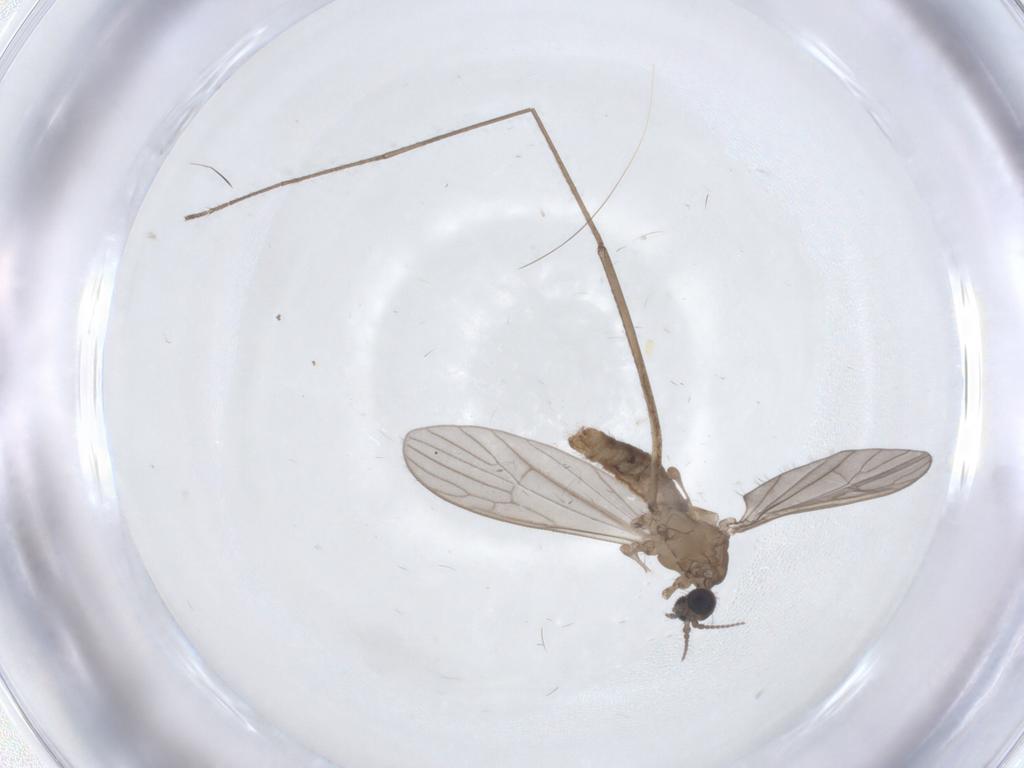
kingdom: Animalia
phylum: Arthropoda
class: Insecta
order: Diptera
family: Limoniidae
